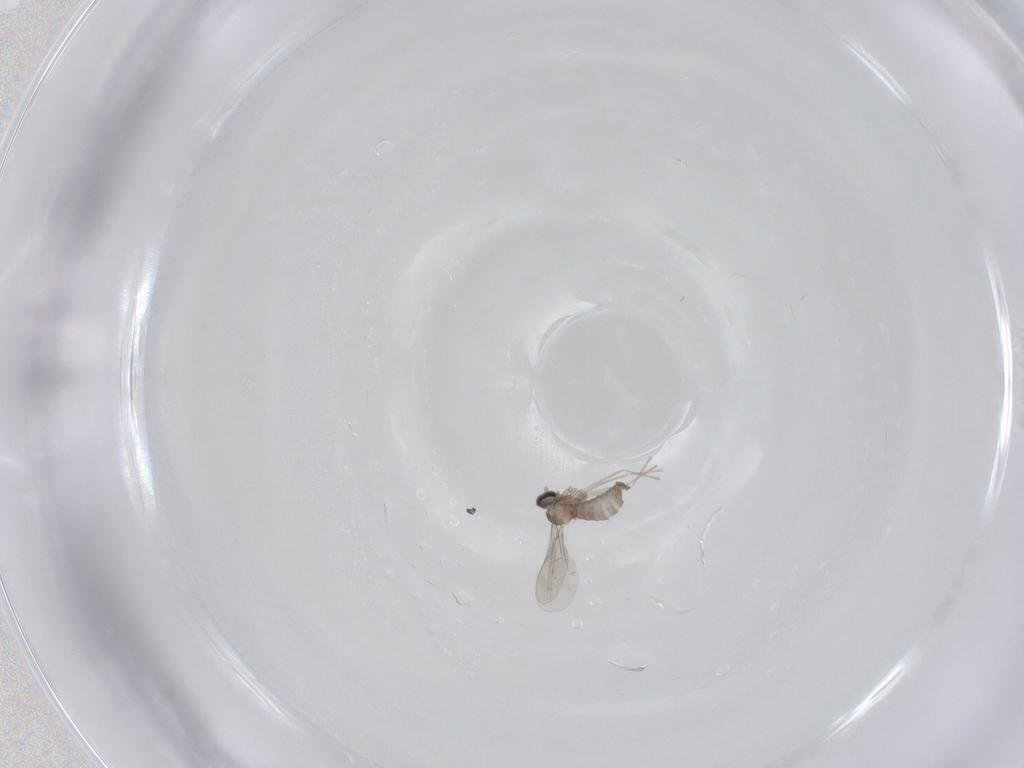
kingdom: Animalia
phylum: Arthropoda
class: Insecta
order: Diptera
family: Cecidomyiidae
